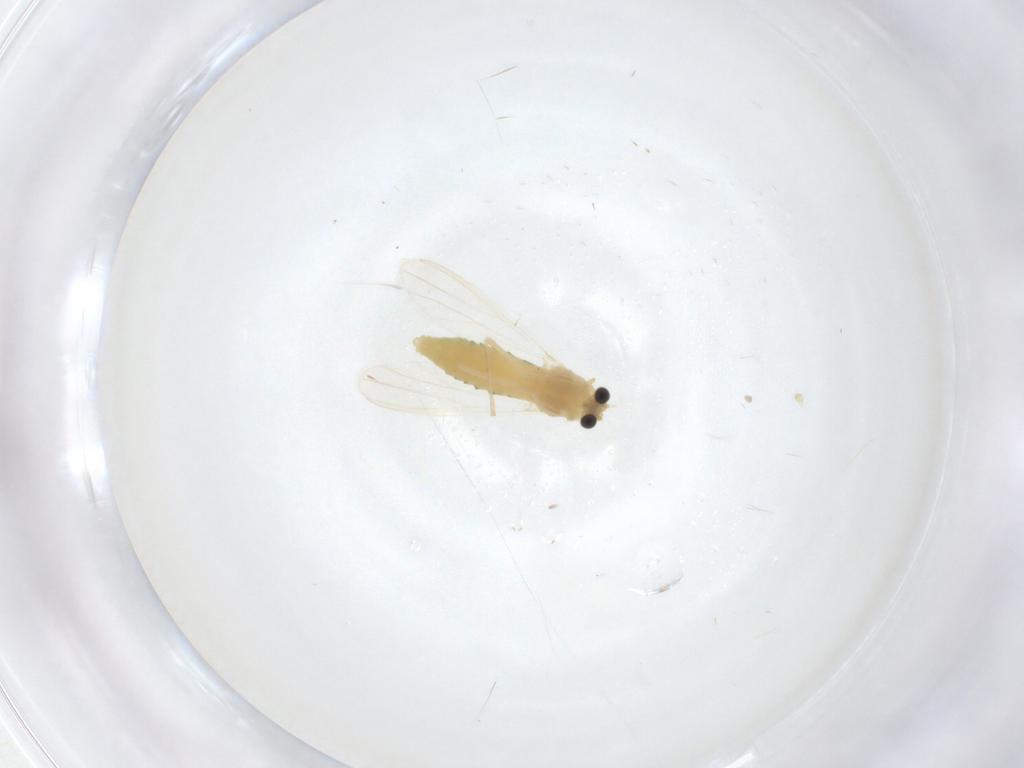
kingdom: Animalia
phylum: Arthropoda
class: Insecta
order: Diptera
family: Chironomidae
